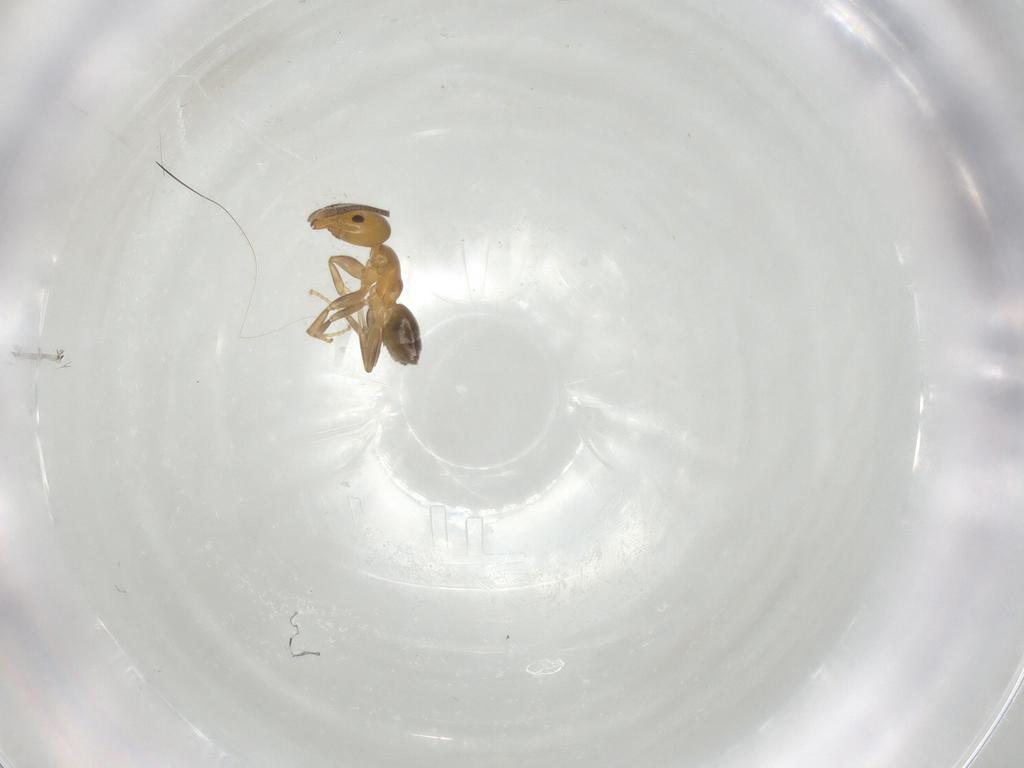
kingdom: Animalia
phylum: Arthropoda
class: Insecta
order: Hymenoptera
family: Formicidae
